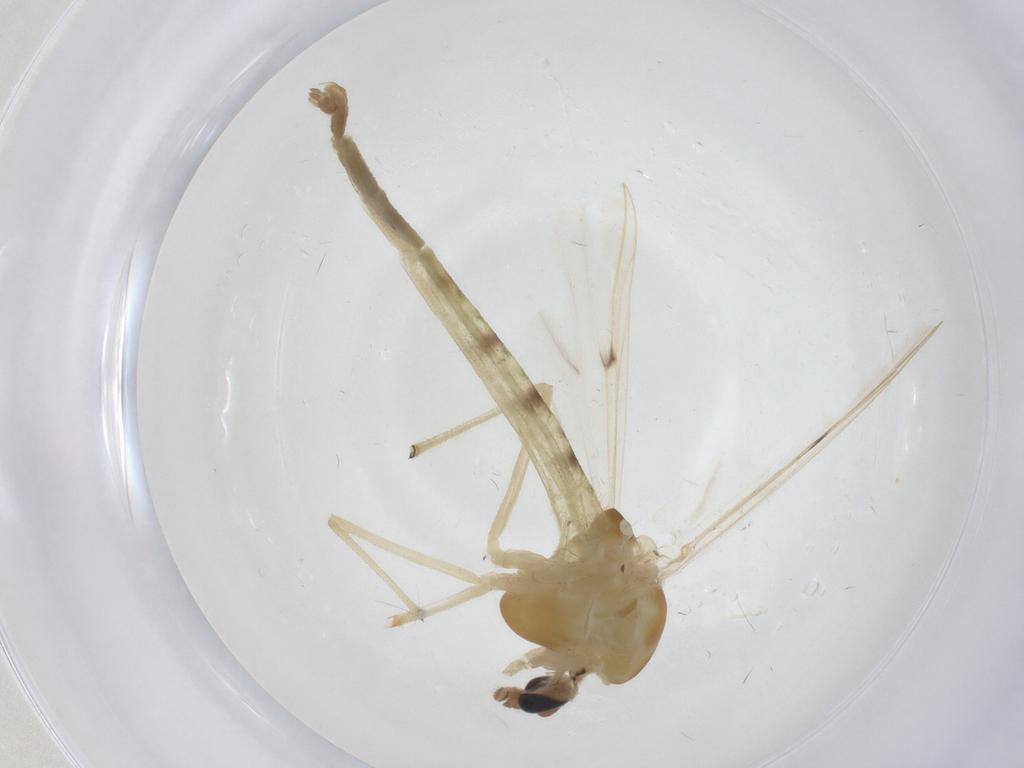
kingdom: Animalia
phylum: Arthropoda
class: Insecta
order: Diptera
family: Chironomidae
